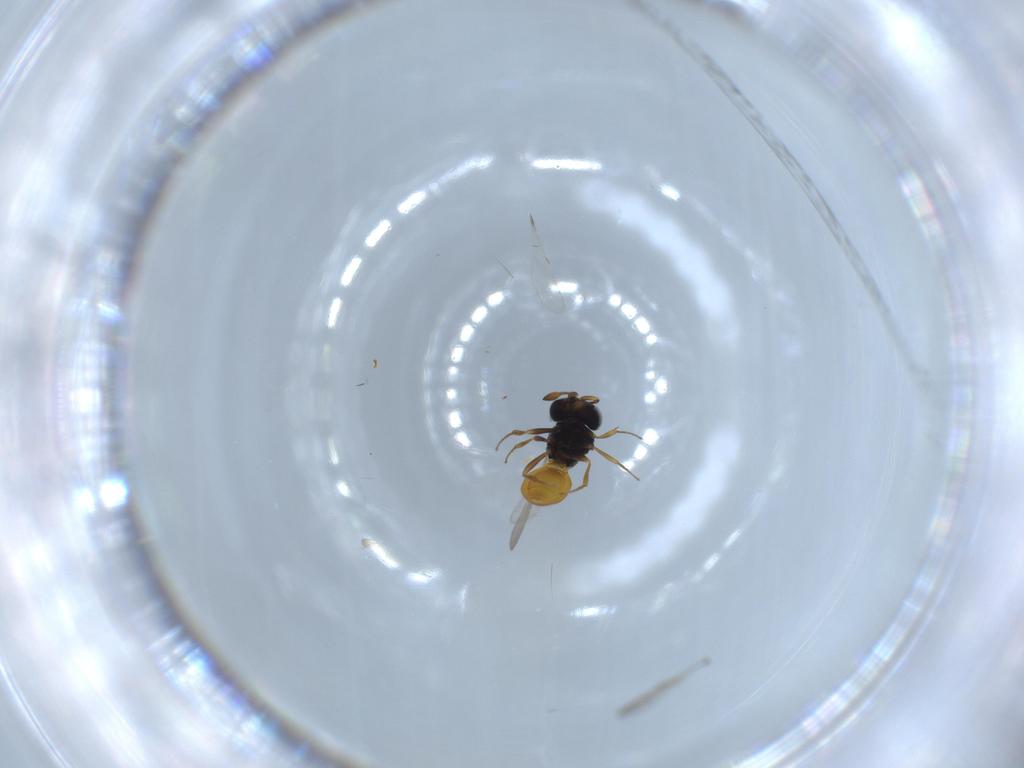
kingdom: Animalia
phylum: Arthropoda
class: Insecta
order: Hymenoptera
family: Scelionidae
